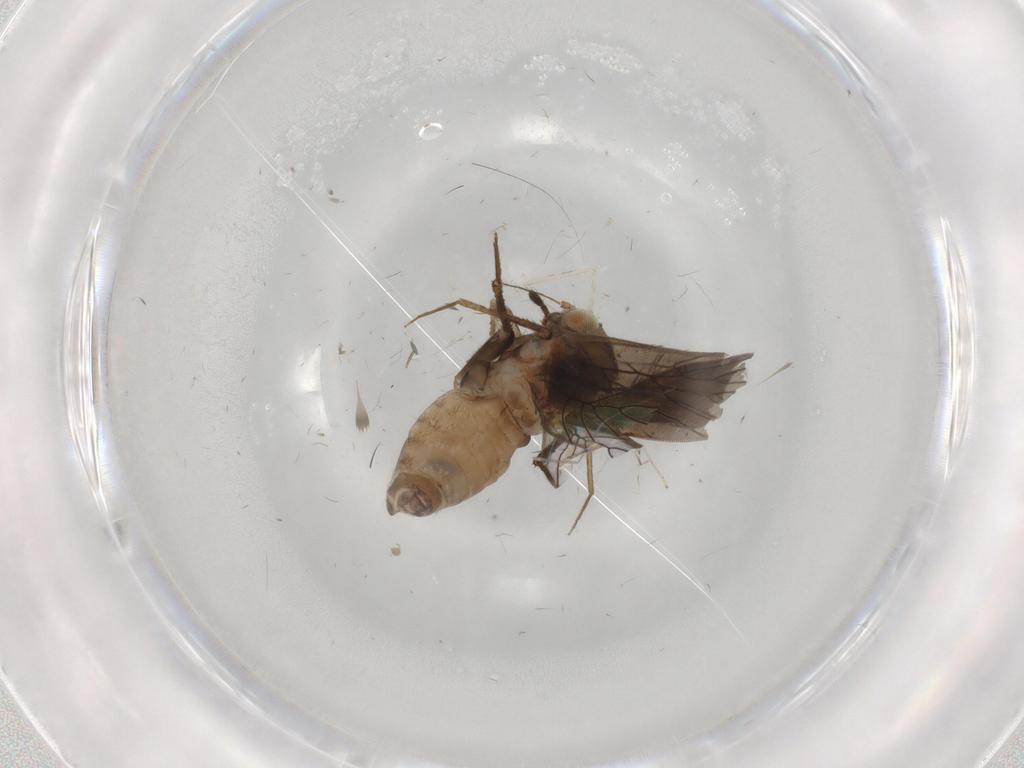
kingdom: Animalia
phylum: Arthropoda
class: Insecta
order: Psocodea
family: Lepidopsocidae
